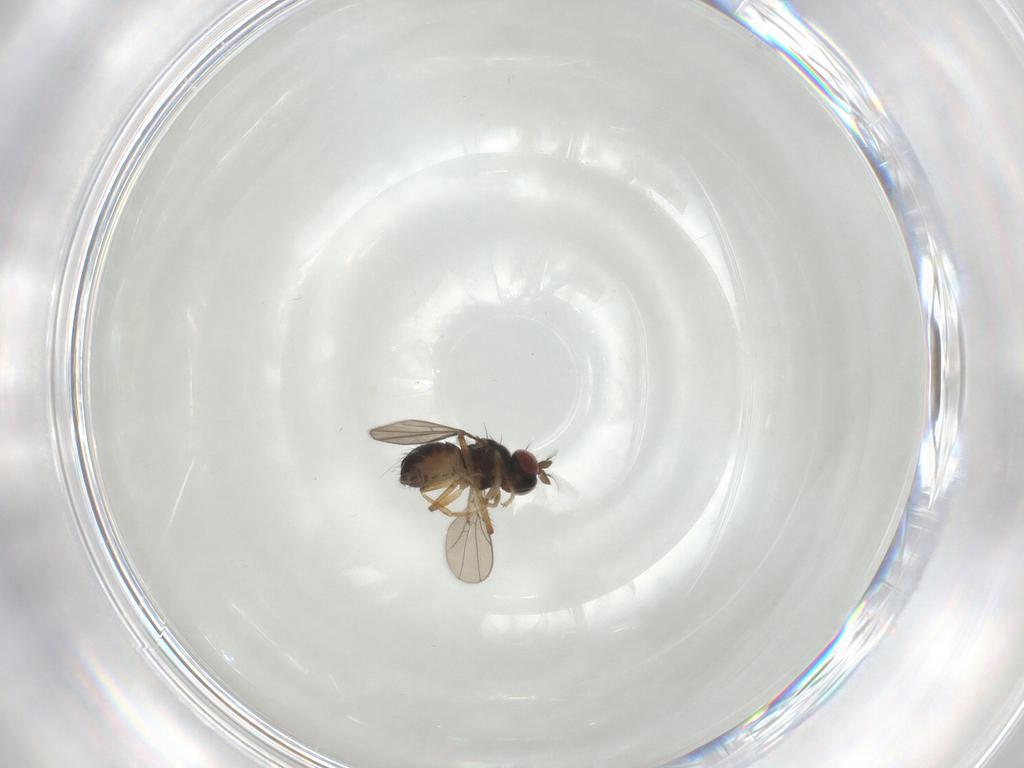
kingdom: Animalia
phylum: Arthropoda
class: Insecta
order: Diptera
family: Ephydridae
